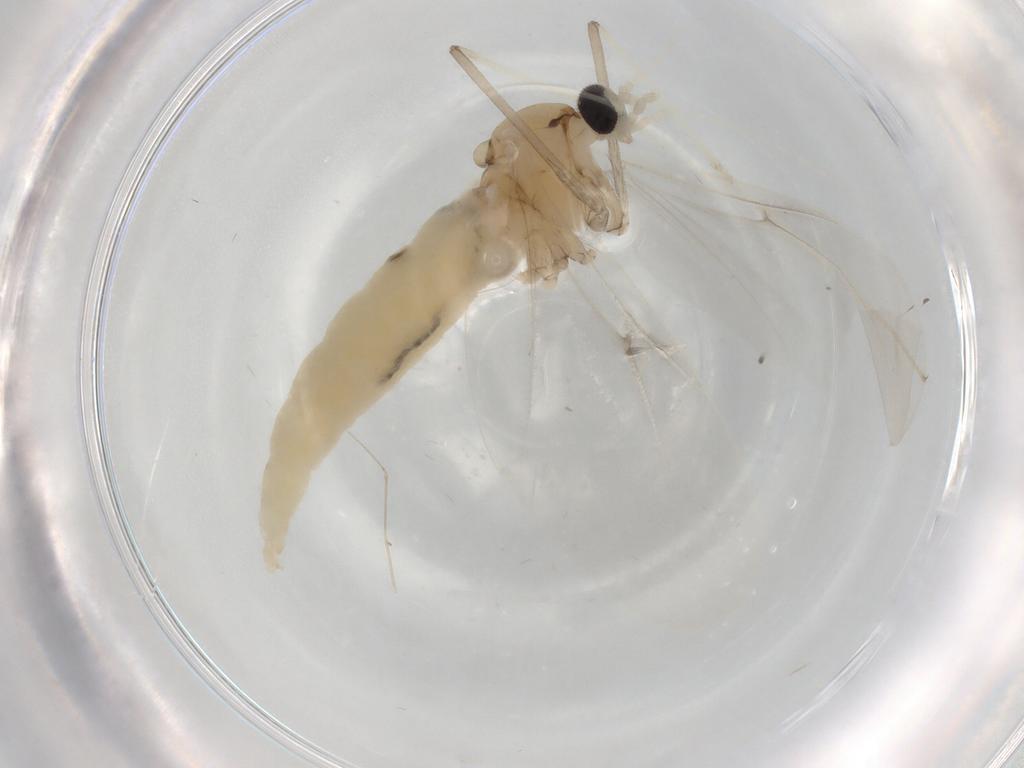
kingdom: Animalia
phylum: Arthropoda
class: Insecta
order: Diptera
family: Cecidomyiidae
